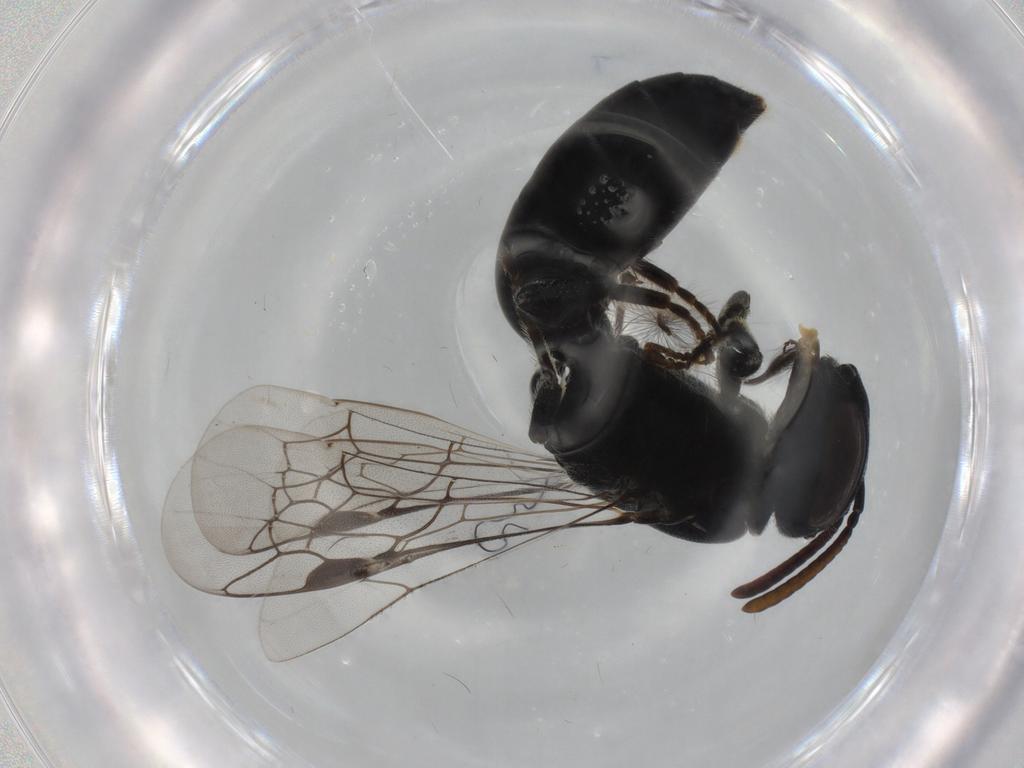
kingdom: Animalia
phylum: Arthropoda
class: Insecta
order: Hymenoptera
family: Colletidae
